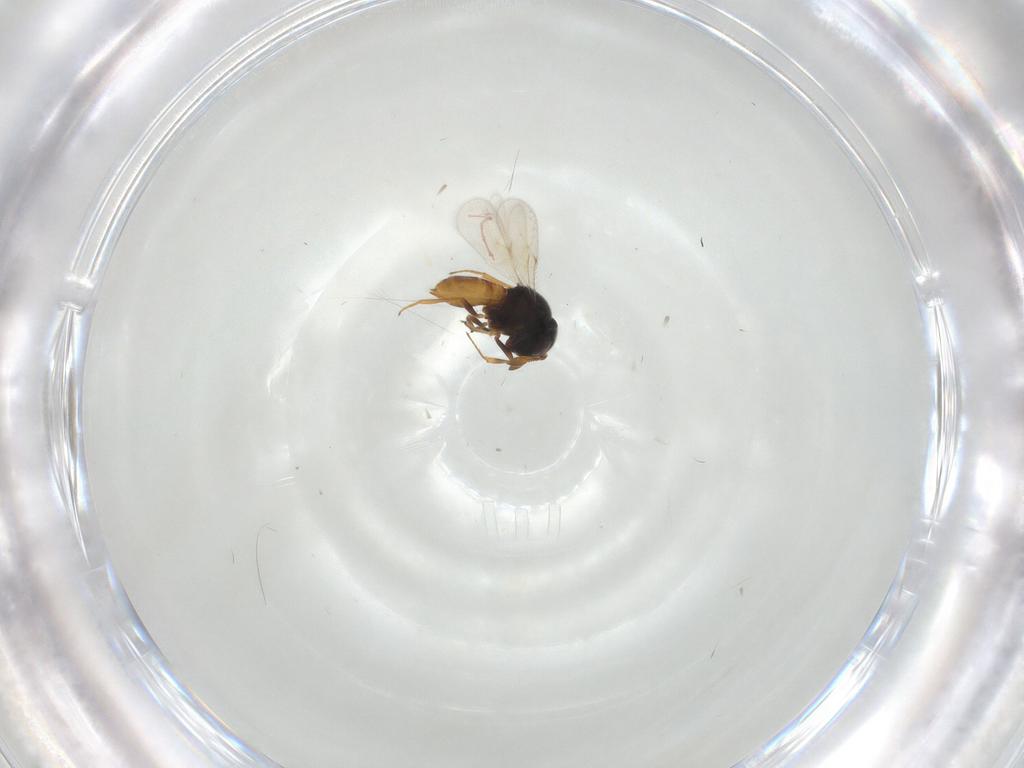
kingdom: Animalia
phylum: Arthropoda
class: Insecta
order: Hymenoptera
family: Scelionidae
